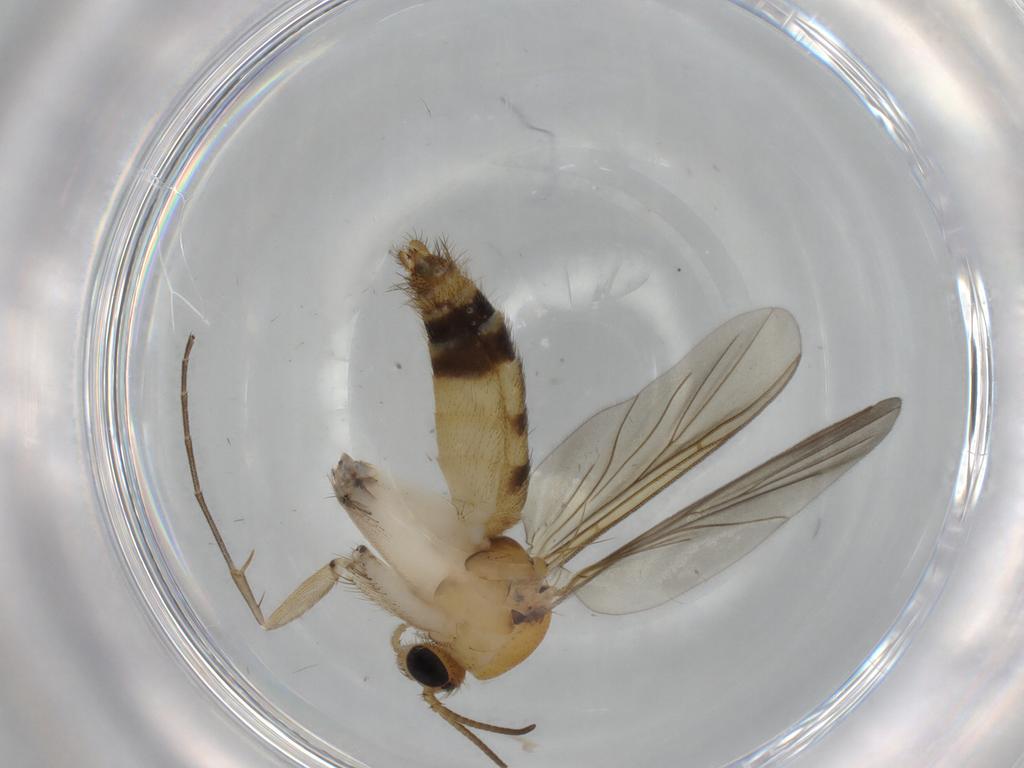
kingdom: Animalia
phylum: Arthropoda
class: Insecta
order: Diptera
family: Mycetophilidae
